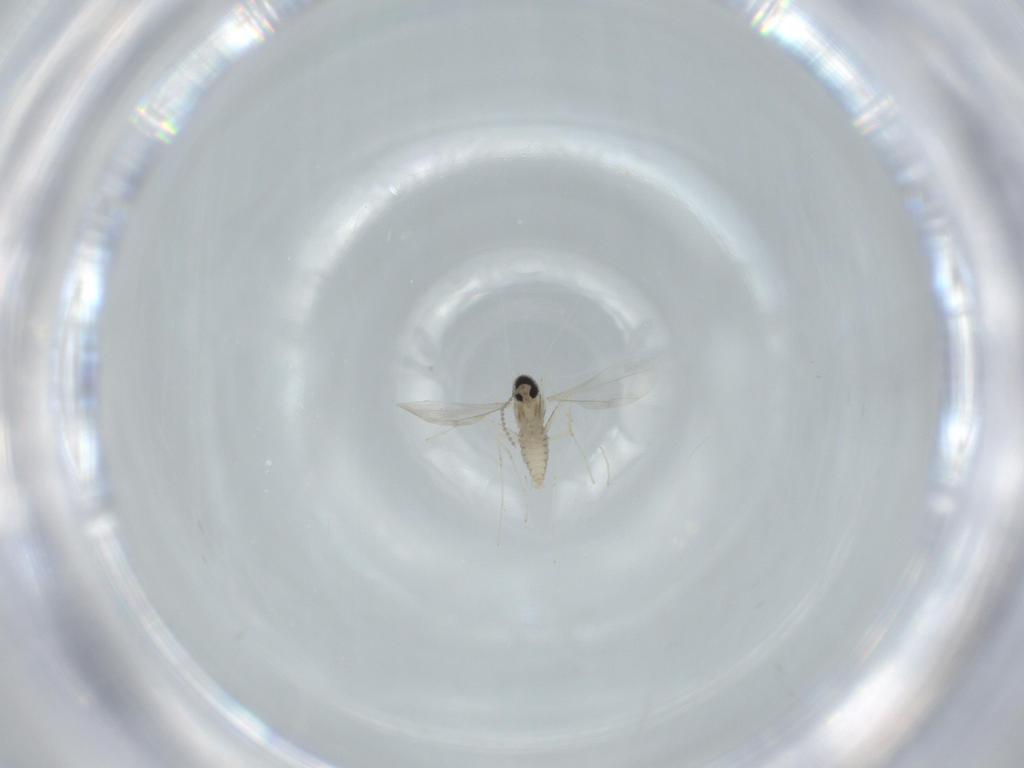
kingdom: Animalia
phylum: Arthropoda
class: Insecta
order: Diptera
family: Cecidomyiidae
